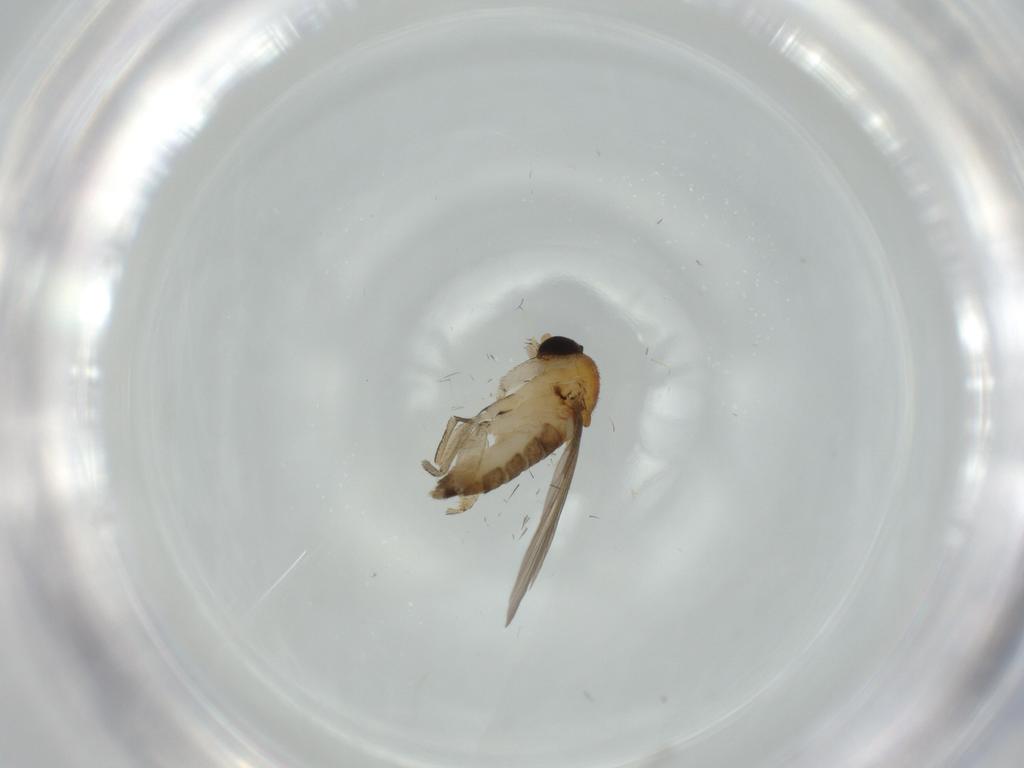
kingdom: Animalia
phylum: Arthropoda
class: Insecta
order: Diptera
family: Phoridae
